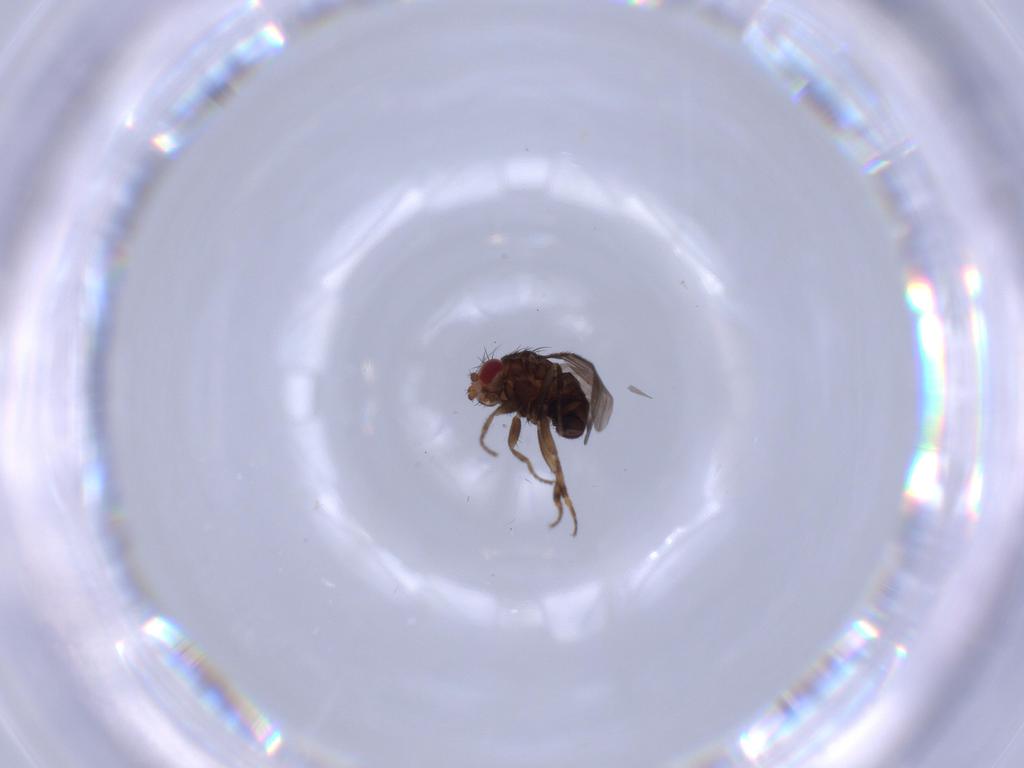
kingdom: Animalia
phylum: Arthropoda
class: Insecta
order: Diptera
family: Sphaeroceridae
